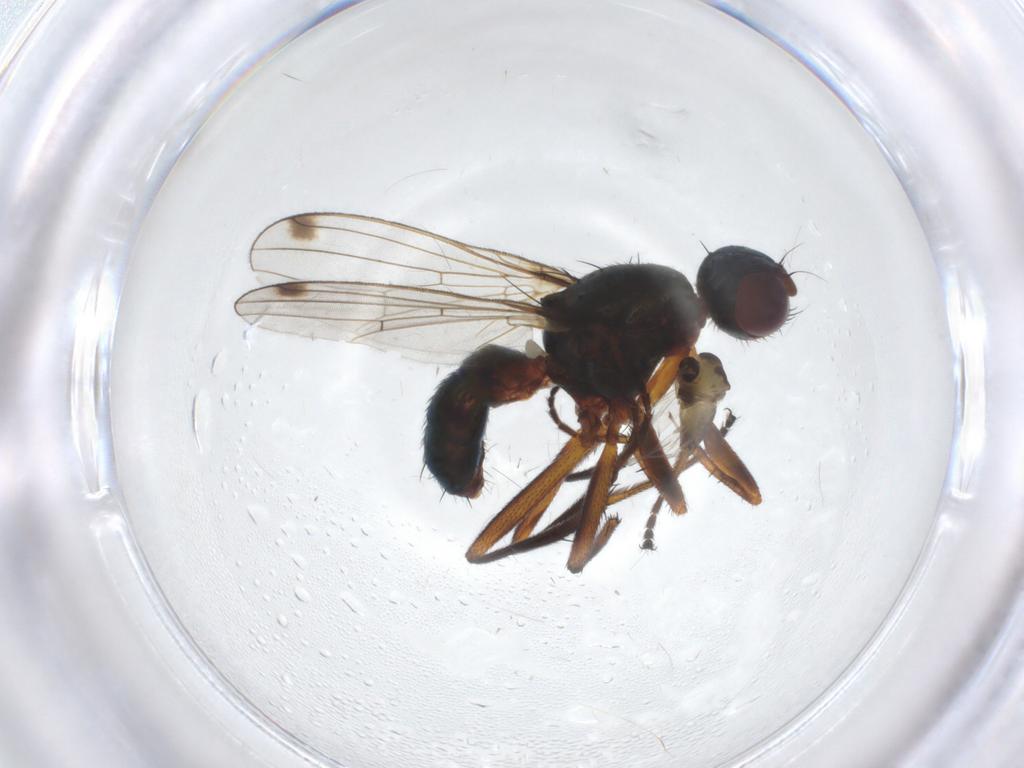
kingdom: Animalia
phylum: Arthropoda
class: Insecta
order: Diptera
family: Sepsidae
